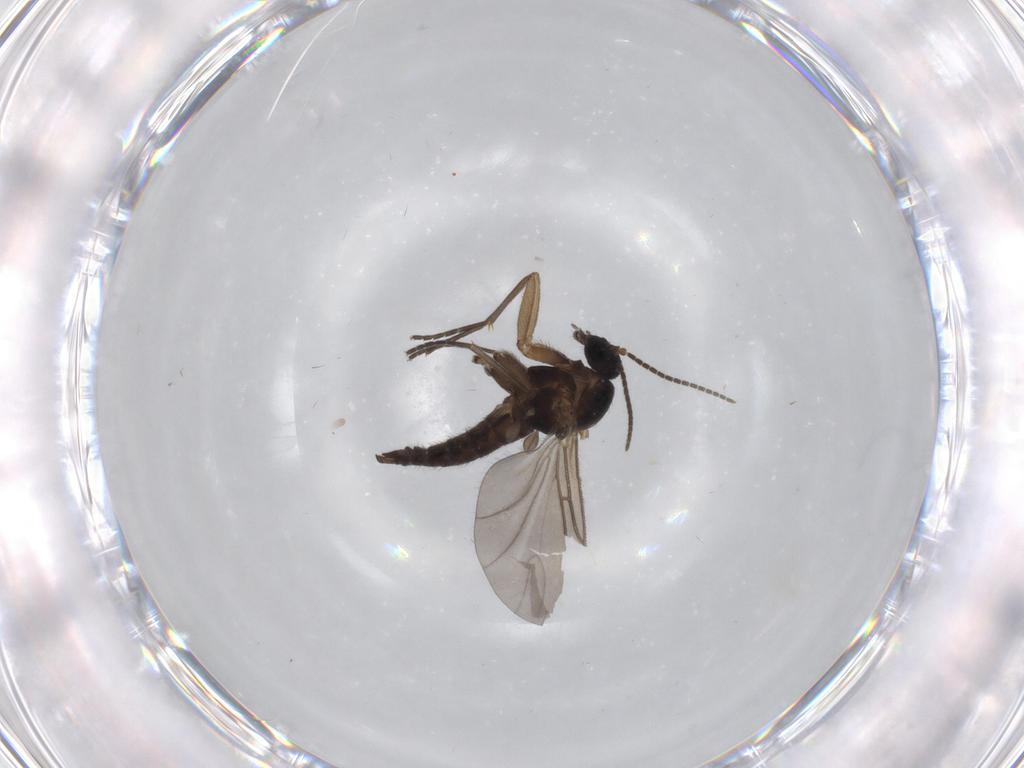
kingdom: Animalia
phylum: Arthropoda
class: Insecta
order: Diptera
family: Sciaridae
